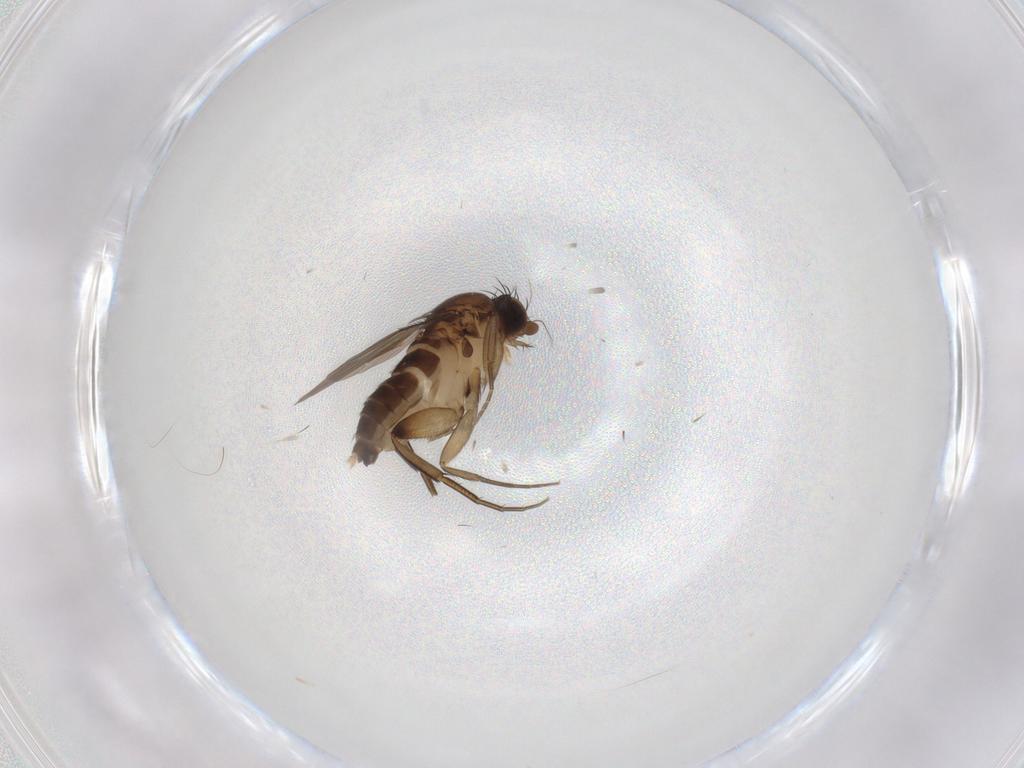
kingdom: Animalia
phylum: Arthropoda
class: Insecta
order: Diptera
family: Phoridae
